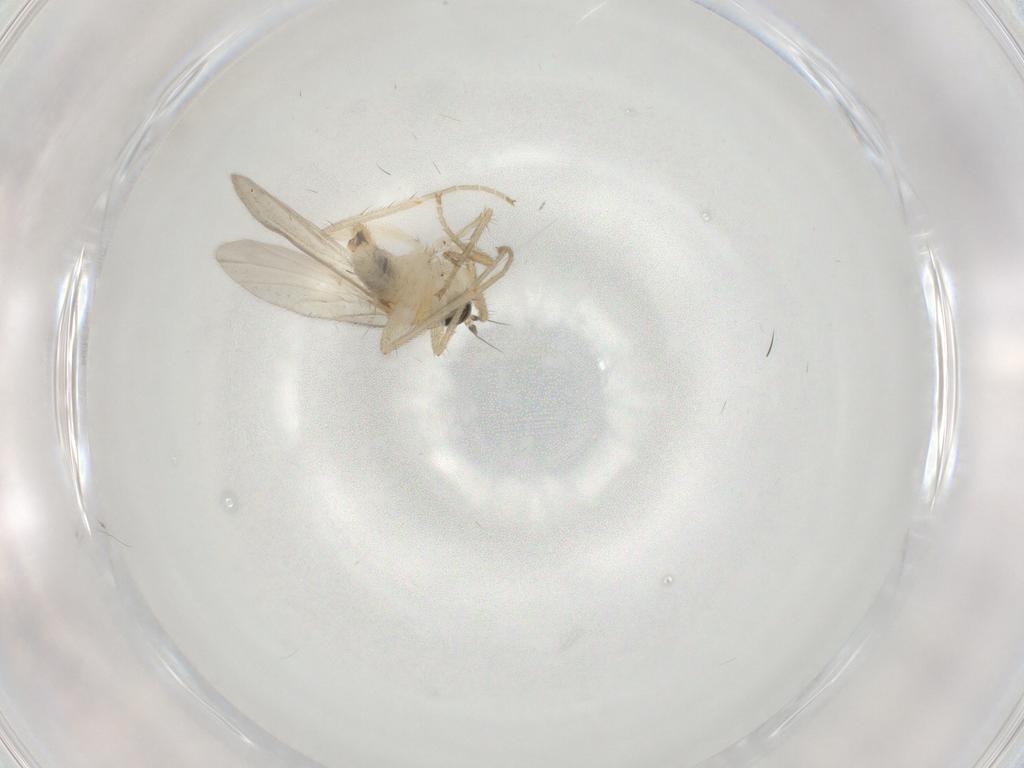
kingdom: Animalia
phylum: Arthropoda
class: Insecta
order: Diptera
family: Hybotidae
